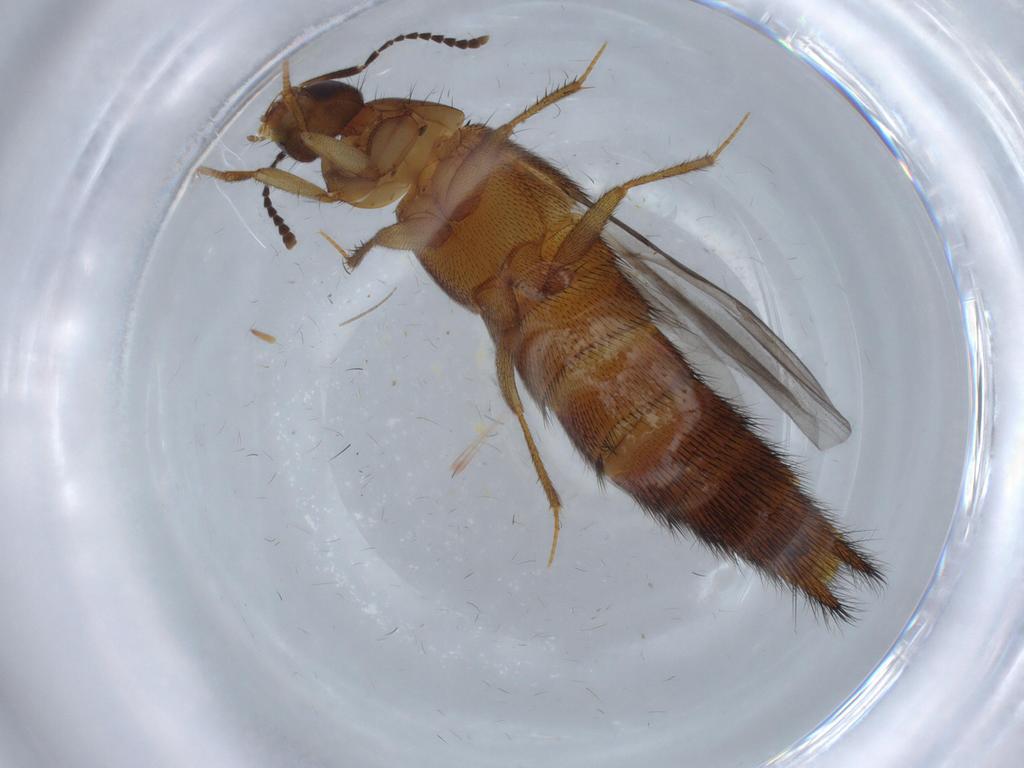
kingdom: Animalia
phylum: Arthropoda
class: Insecta
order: Coleoptera
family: Staphylinidae
